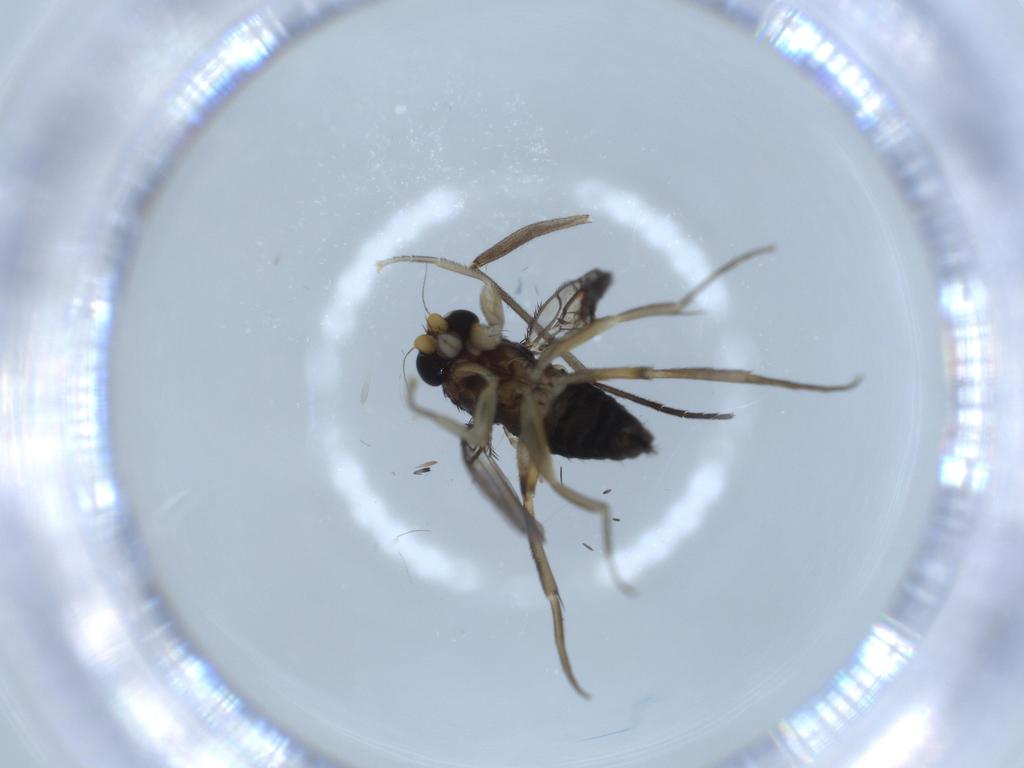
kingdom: Animalia
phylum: Arthropoda
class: Insecta
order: Diptera
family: Phoridae
